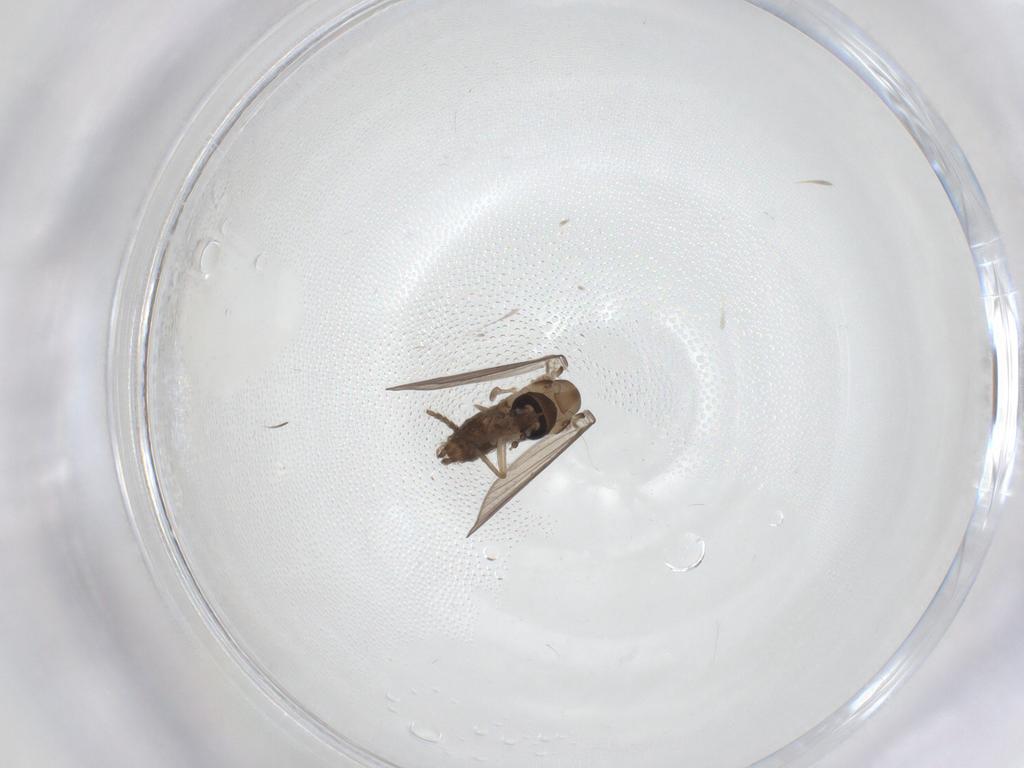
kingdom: Animalia
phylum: Arthropoda
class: Insecta
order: Diptera
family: Psychodidae
